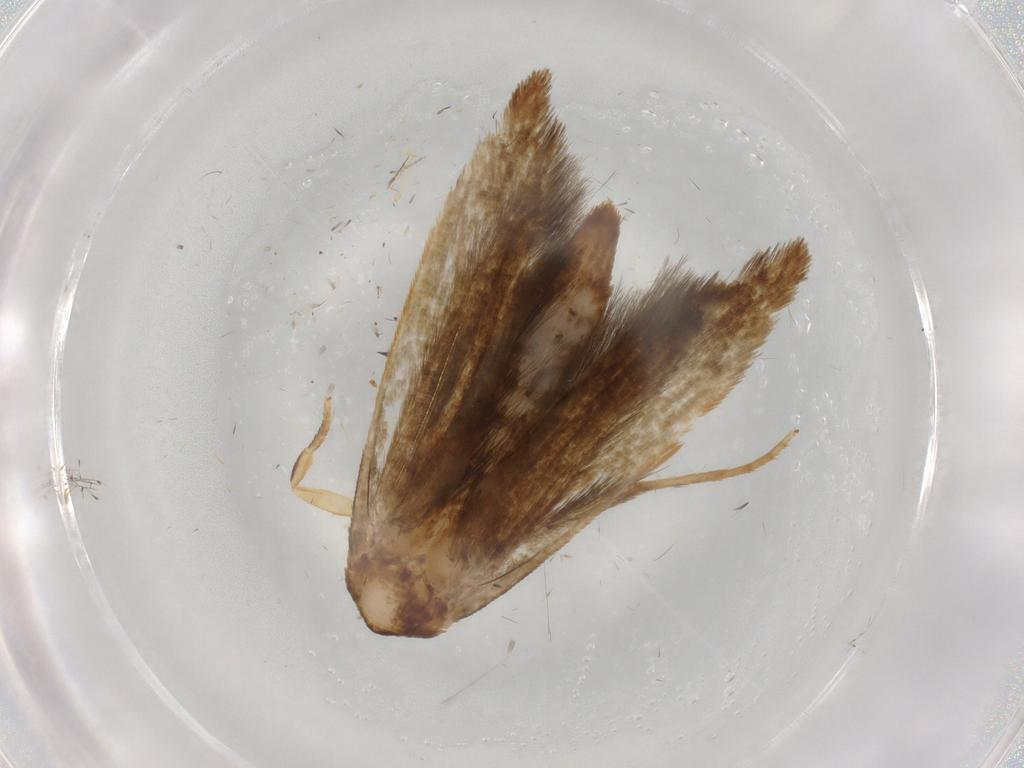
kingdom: Animalia
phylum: Arthropoda
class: Insecta
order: Lepidoptera
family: Tineidae
